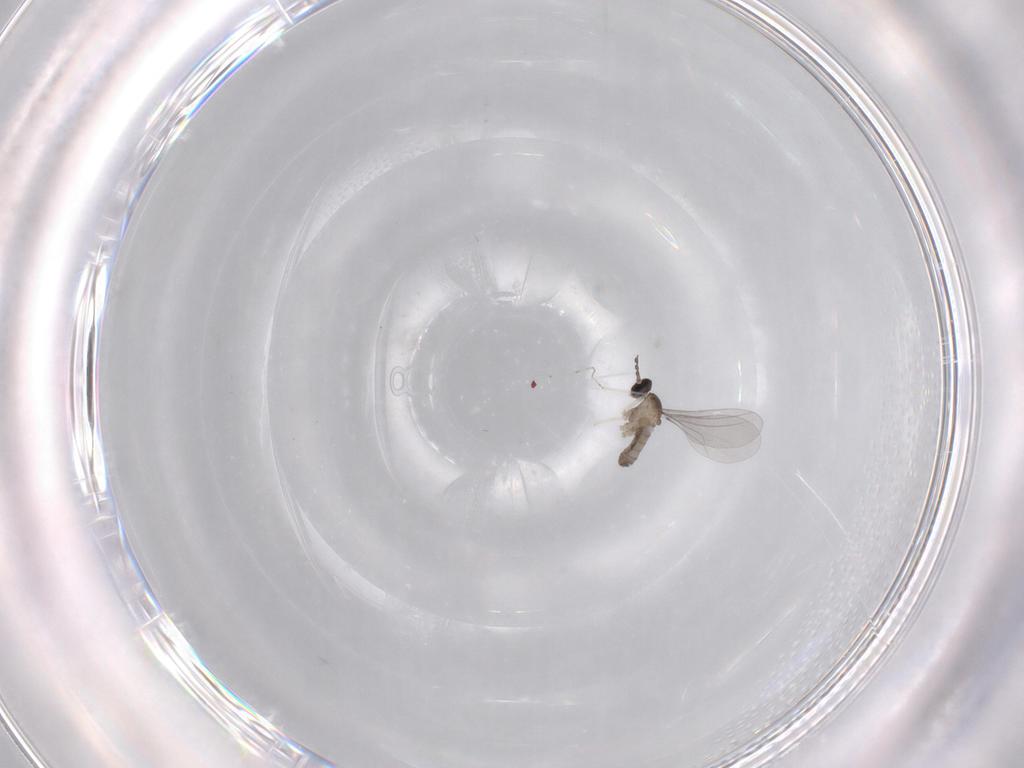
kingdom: Animalia
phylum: Arthropoda
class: Insecta
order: Diptera
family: Cecidomyiidae
